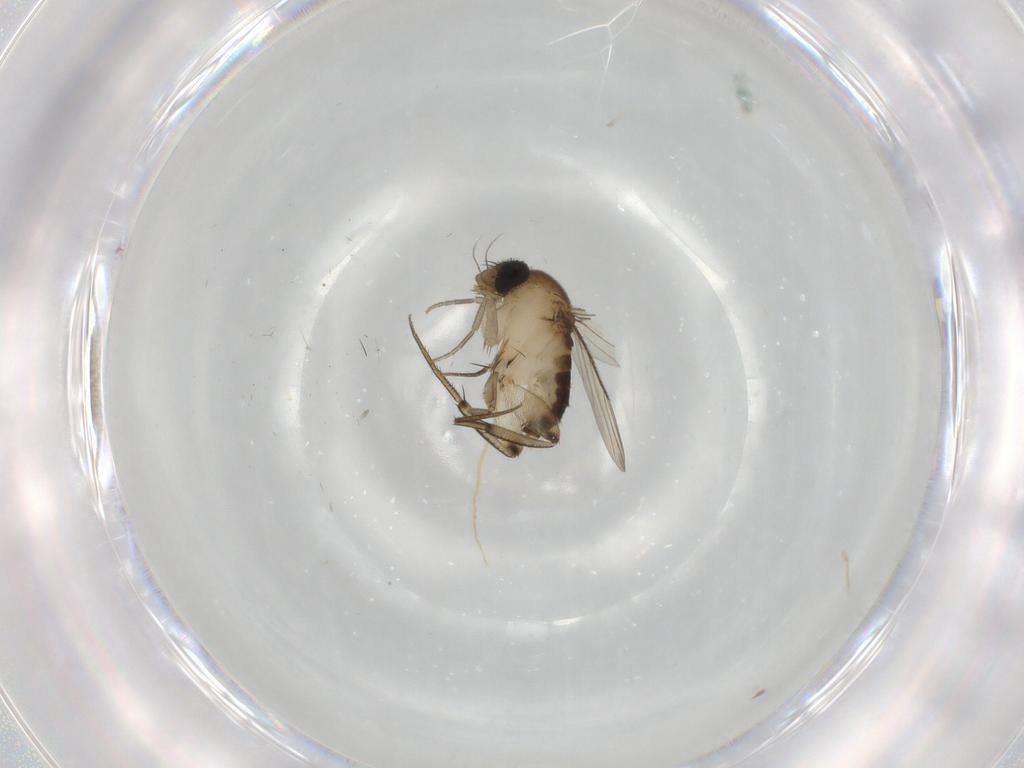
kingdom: Animalia
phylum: Arthropoda
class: Insecta
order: Diptera
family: Phoridae
